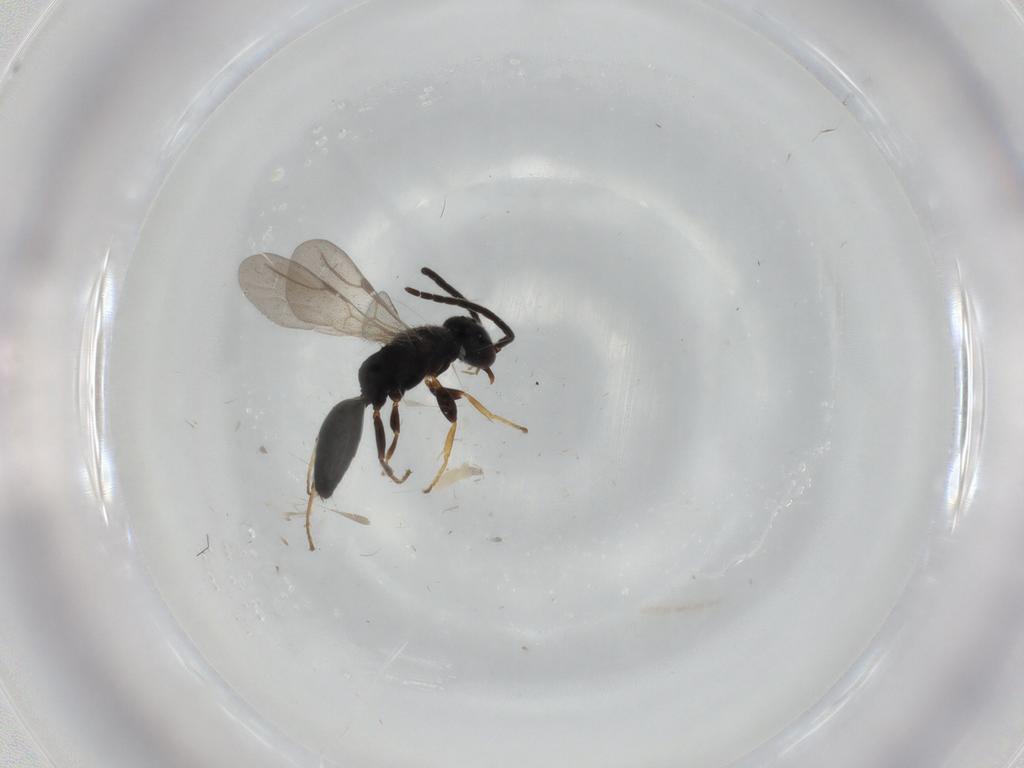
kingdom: Animalia
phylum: Arthropoda
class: Insecta
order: Hymenoptera
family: Bethylidae
